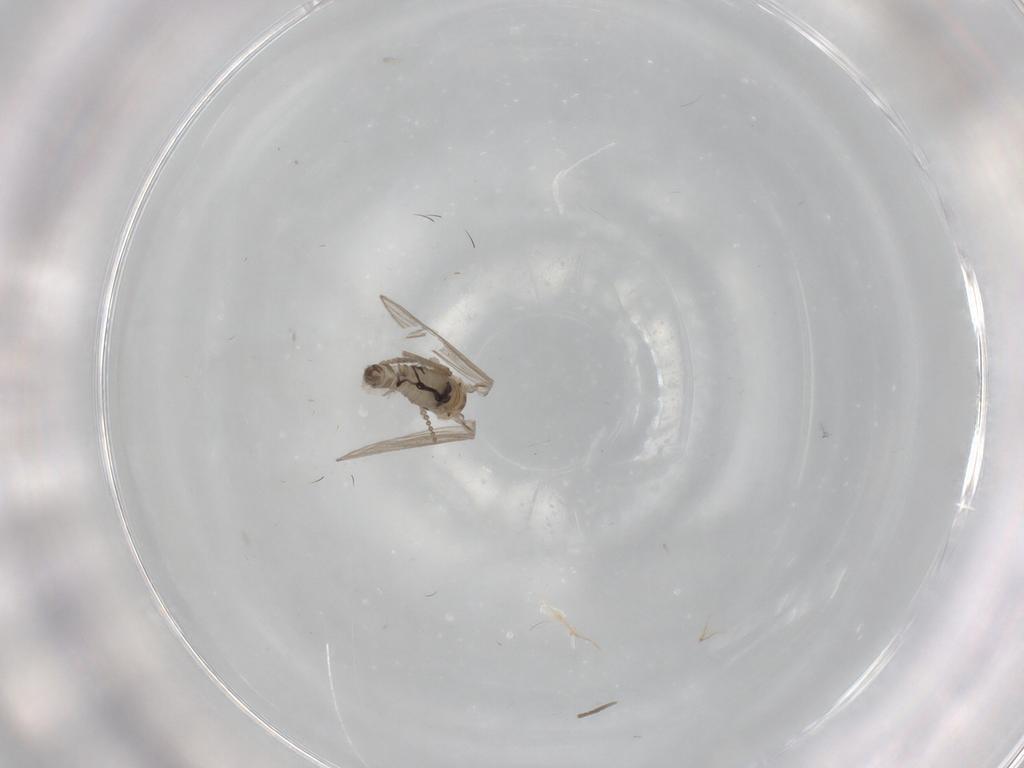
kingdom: Animalia
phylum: Arthropoda
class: Insecta
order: Diptera
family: Psychodidae
